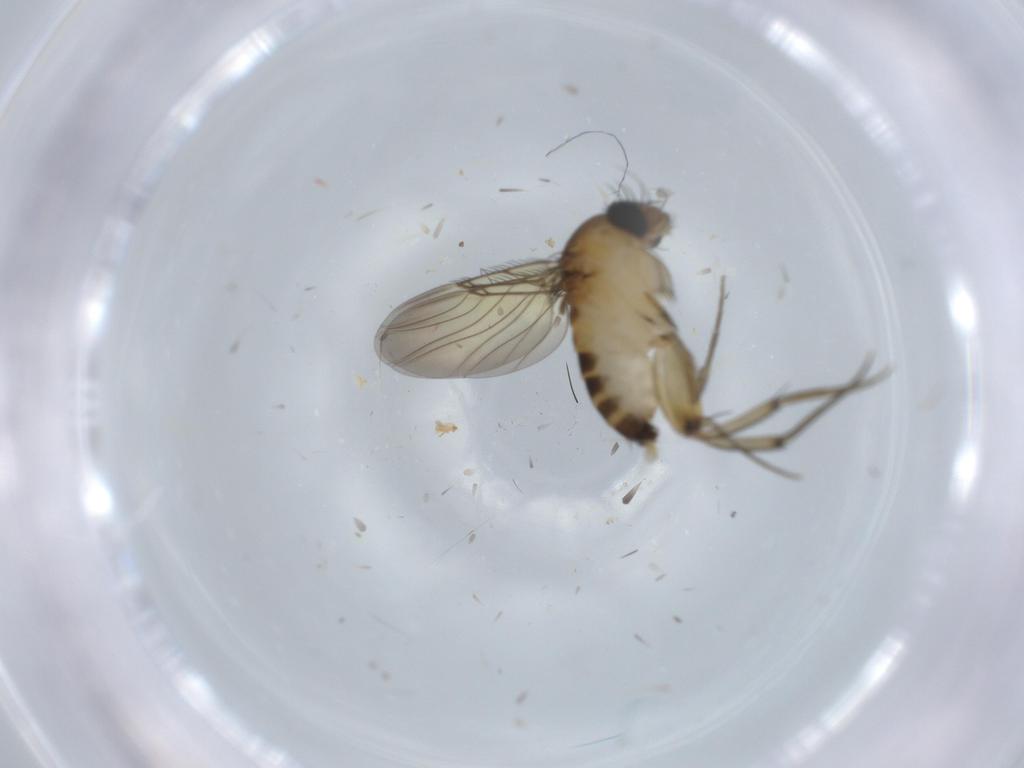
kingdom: Animalia
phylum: Arthropoda
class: Insecta
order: Diptera
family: Cecidomyiidae
